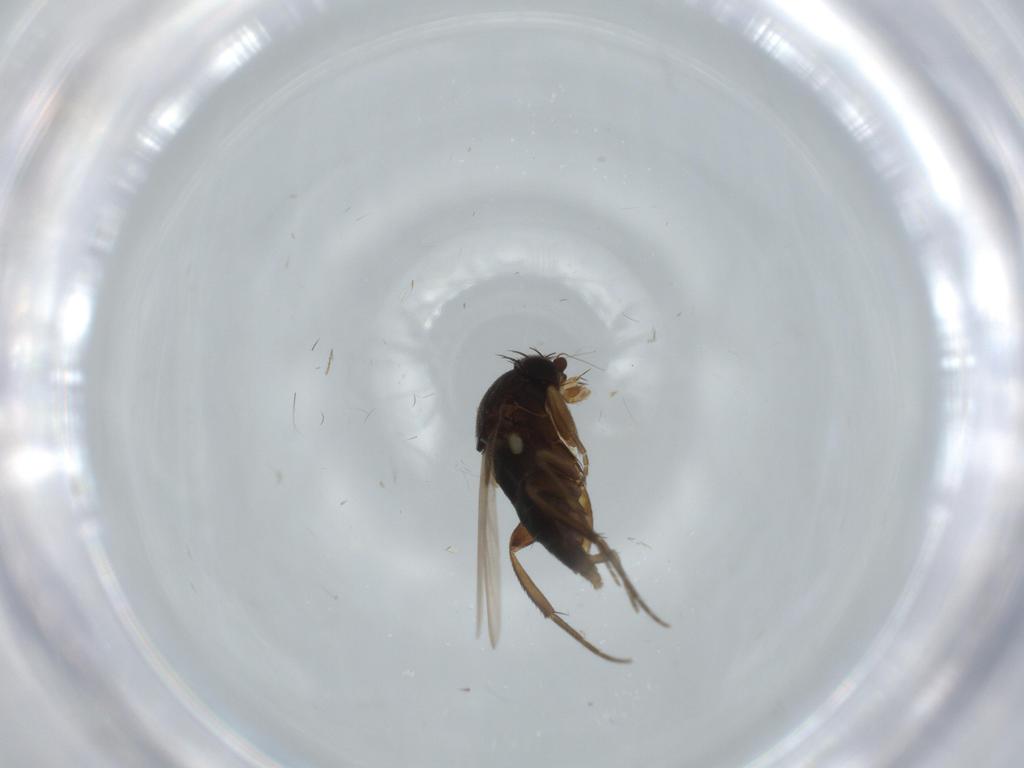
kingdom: Animalia
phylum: Arthropoda
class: Insecta
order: Diptera
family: Phoridae
